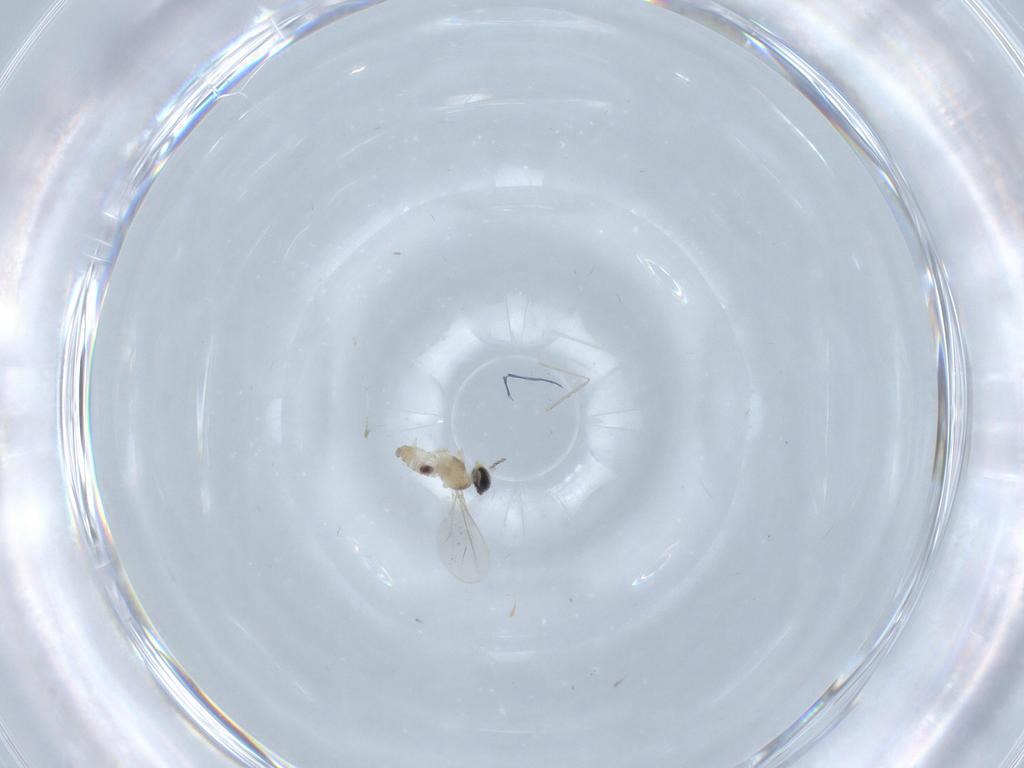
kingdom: Animalia
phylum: Arthropoda
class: Insecta
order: Diptera
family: Cecidomyiidae
